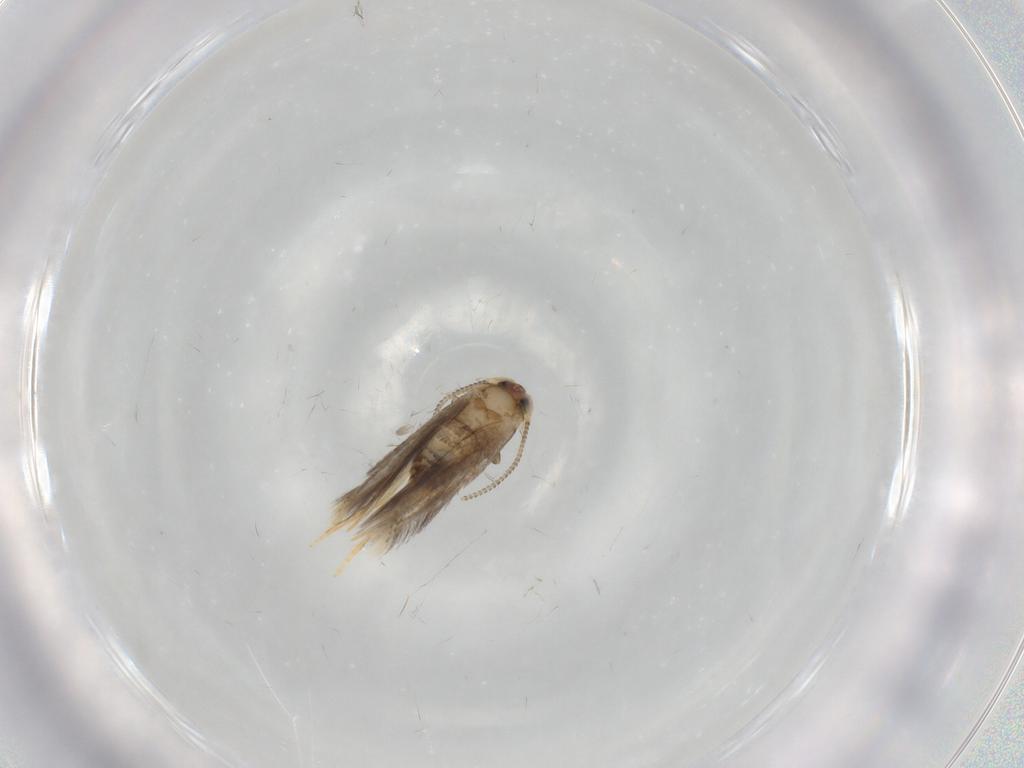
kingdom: Animalia
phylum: Arthropoda
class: Insecta
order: Lepidoptera
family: Nepticulidae
